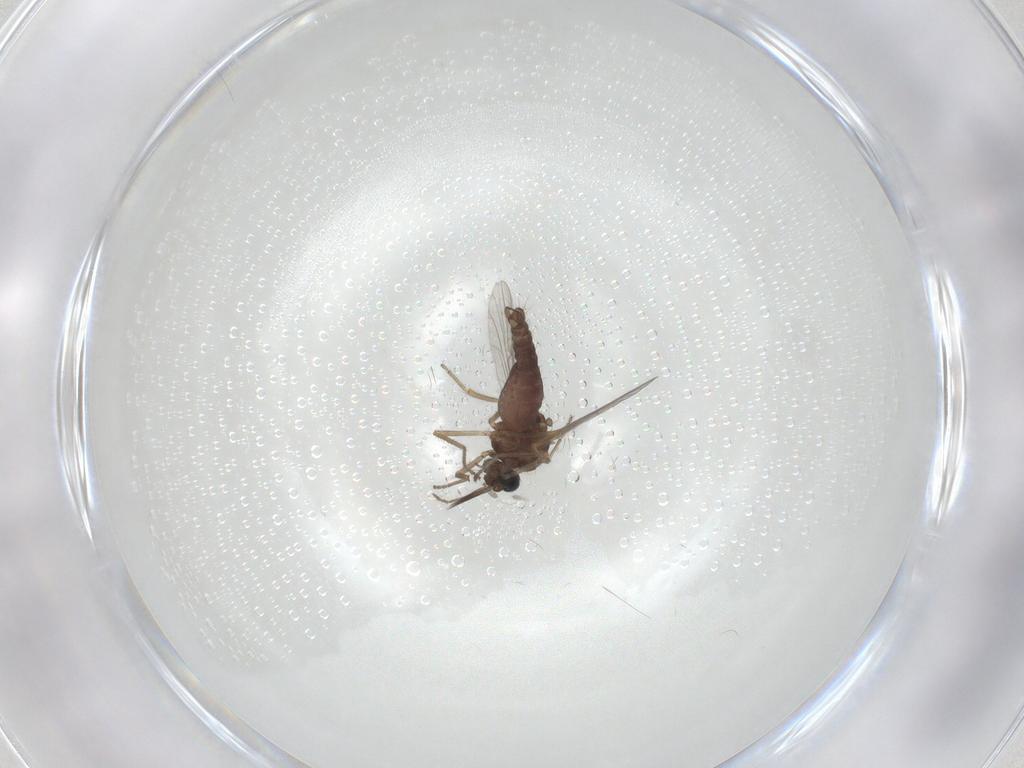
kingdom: Animalia
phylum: Arthropoda
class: Insecta
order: Diptera
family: Ceratopogonidae
